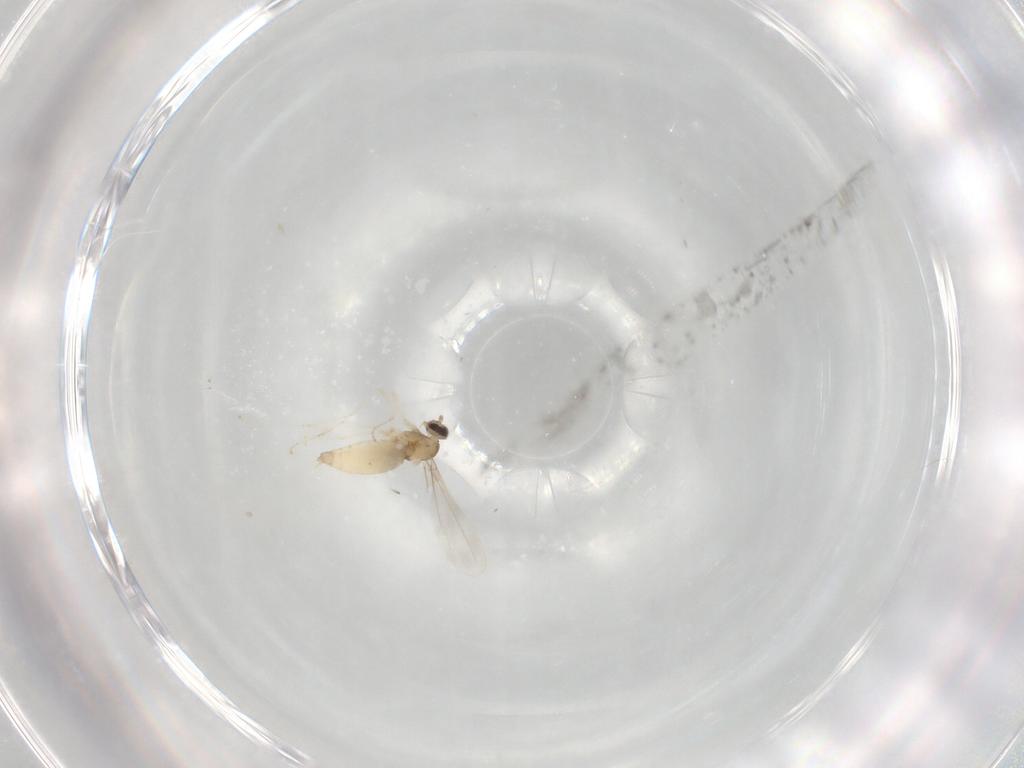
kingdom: Animalia
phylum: Arthropoda
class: Insecta
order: Diptera
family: Cecidomyiidae
